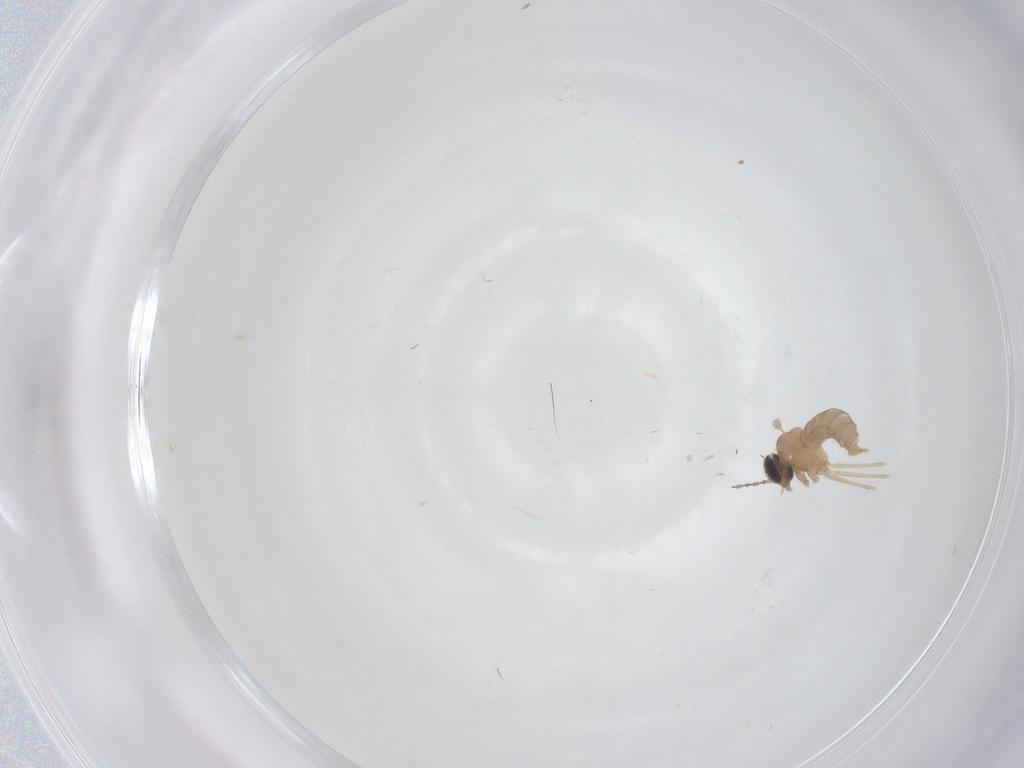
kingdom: Animalia
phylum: Arthropoda
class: Insecta
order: Diptera
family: Cecidomyiidae
